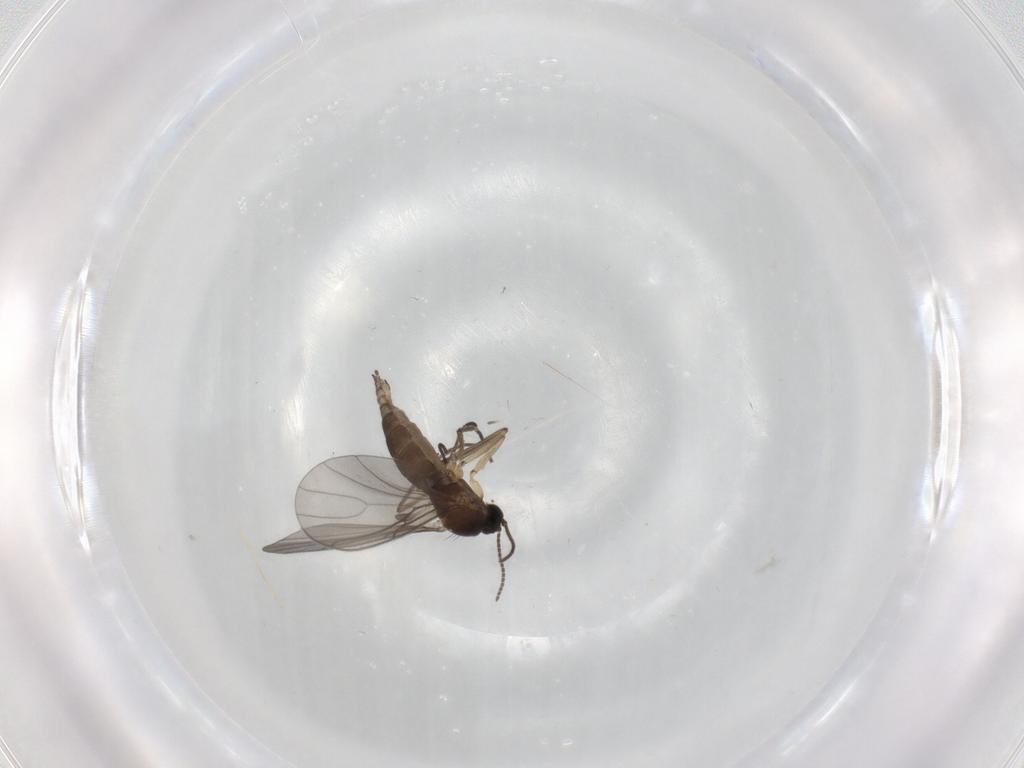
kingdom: Animalia
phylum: Arthropoda
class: Insecta
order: Diptera
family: Sciaridae
